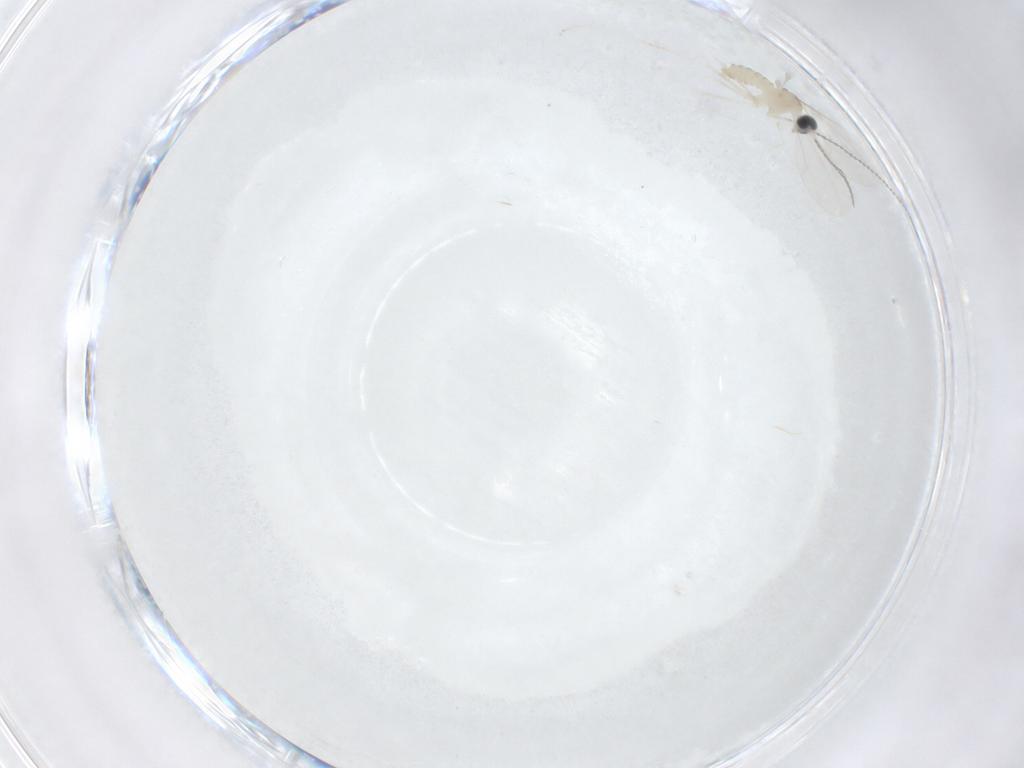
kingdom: Animalia
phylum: Arthropoda
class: Insecta
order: Diptera
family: Cecidomyiidae
